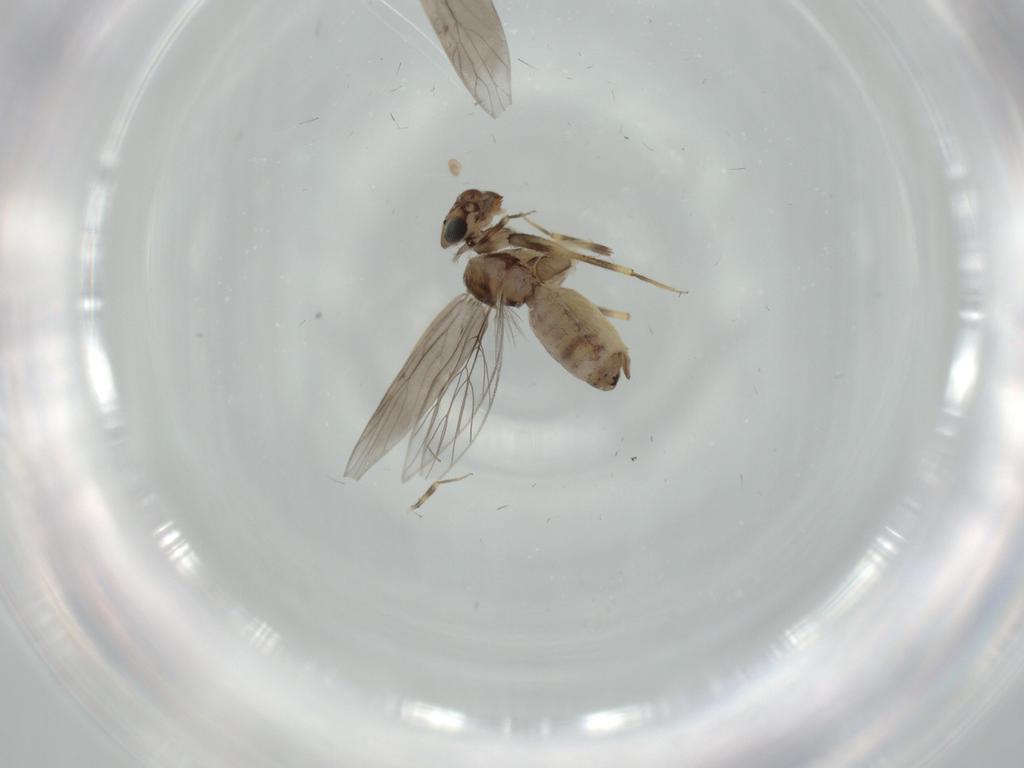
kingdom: Animalia
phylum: Arthropoda
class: Insecta
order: Psocodea
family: Lepidopsocidae
